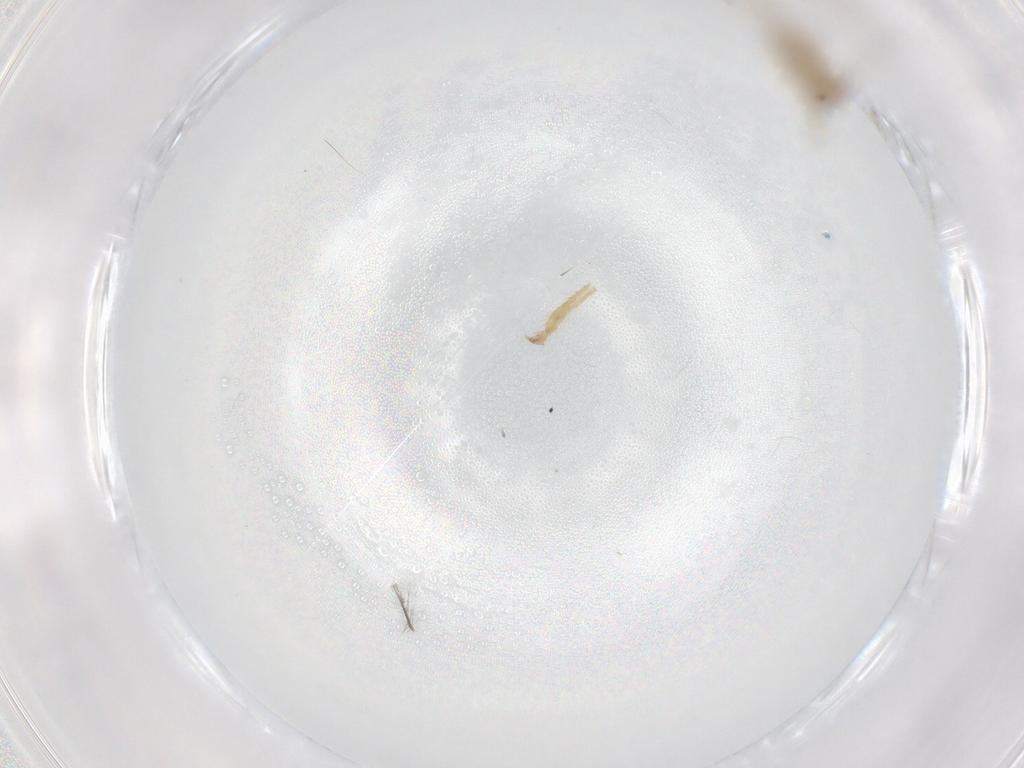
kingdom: Animalia
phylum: Arthropoda
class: Insecta
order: Diptera
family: Chironomidae
